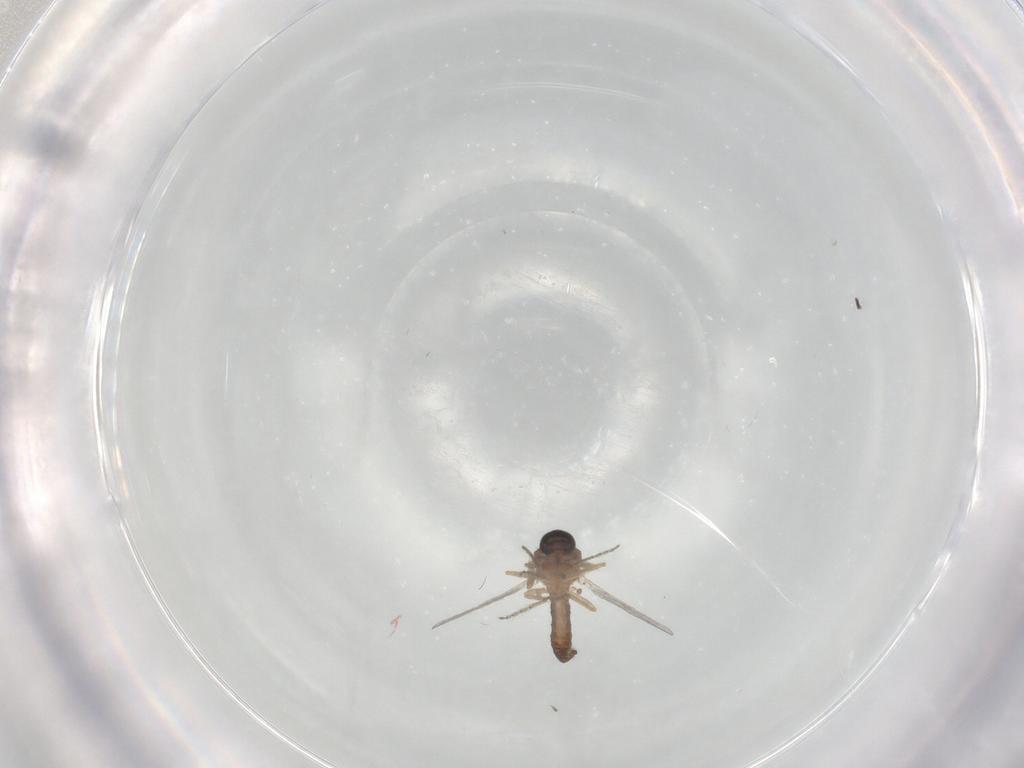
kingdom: Animalia
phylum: Arthropoda
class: Insecta
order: Diptera
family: Ceratopogonidae
